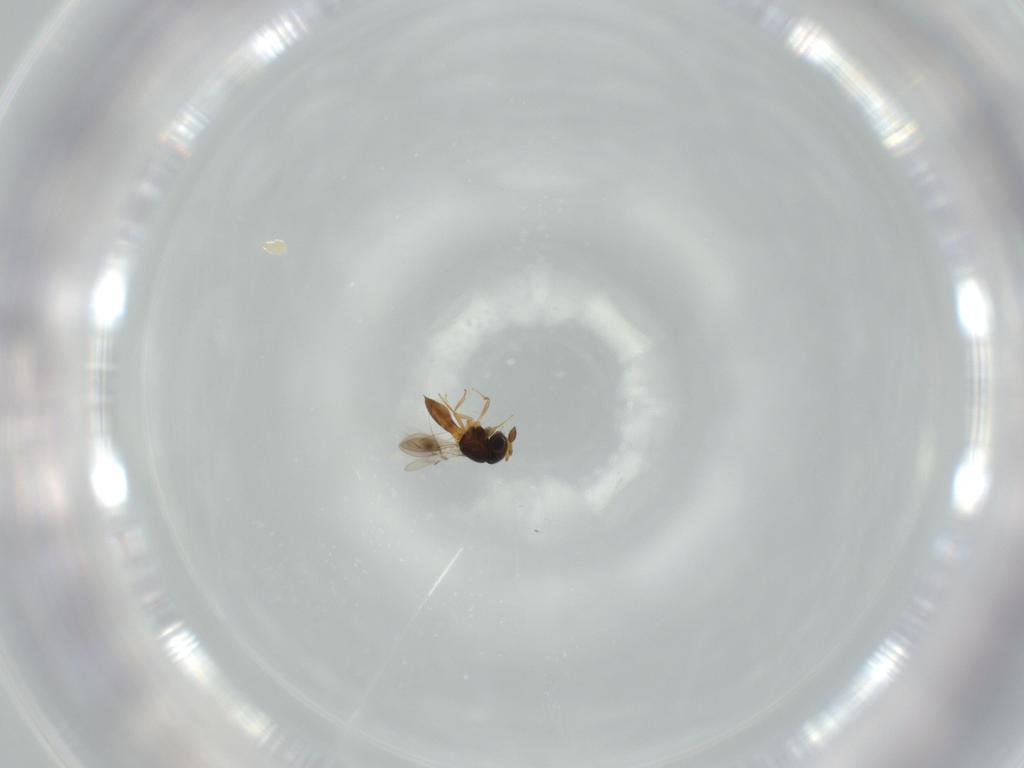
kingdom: Animalia
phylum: Arthropoda
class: Insecta
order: Hymenoptera
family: Scelionidae
